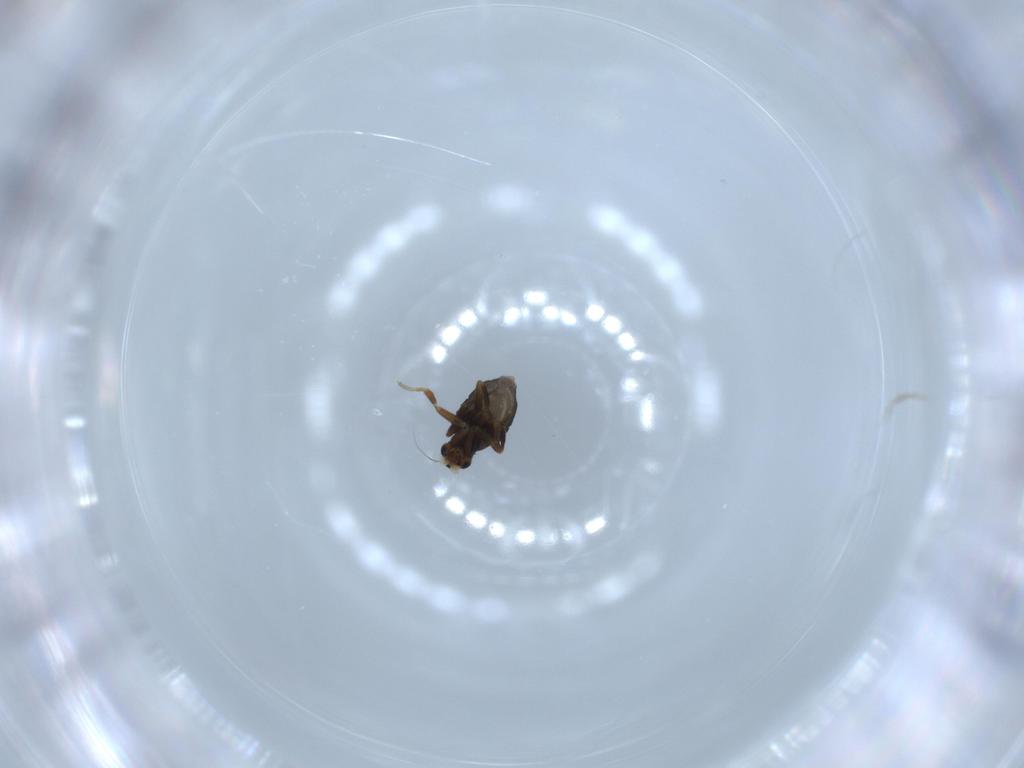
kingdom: Animalia
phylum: Arthropoda
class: Insecta
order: Diptera
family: Phoridae
